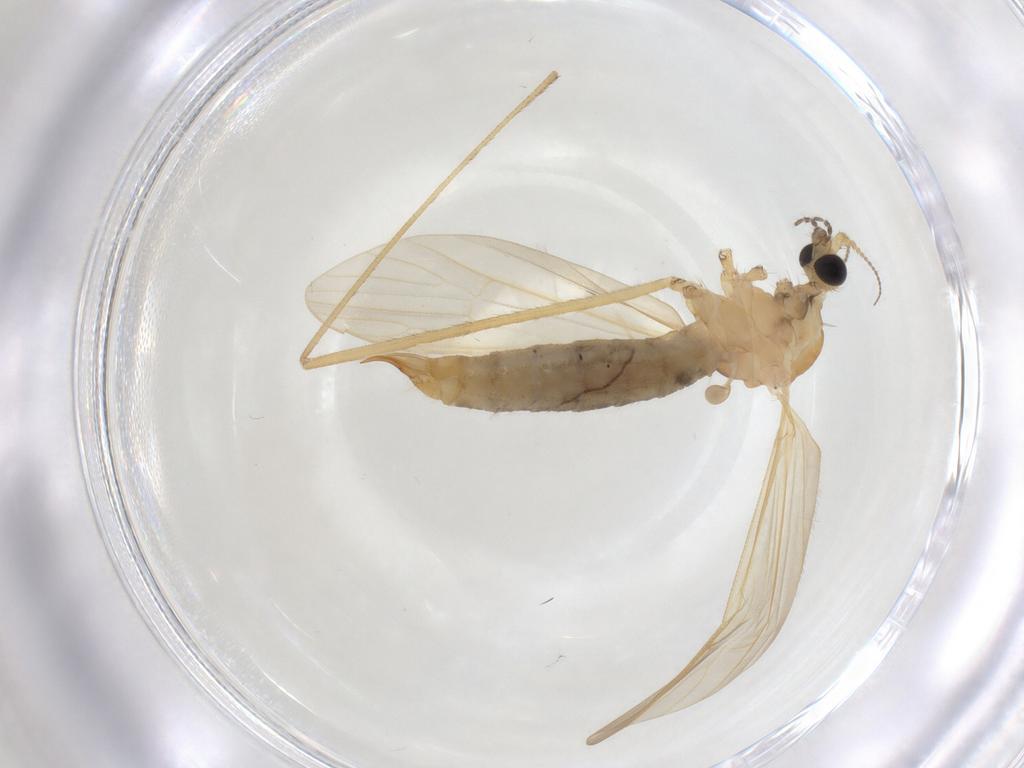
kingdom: Animalia
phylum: Arthropoda
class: Insecta
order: Diptera
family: Limoniidae
